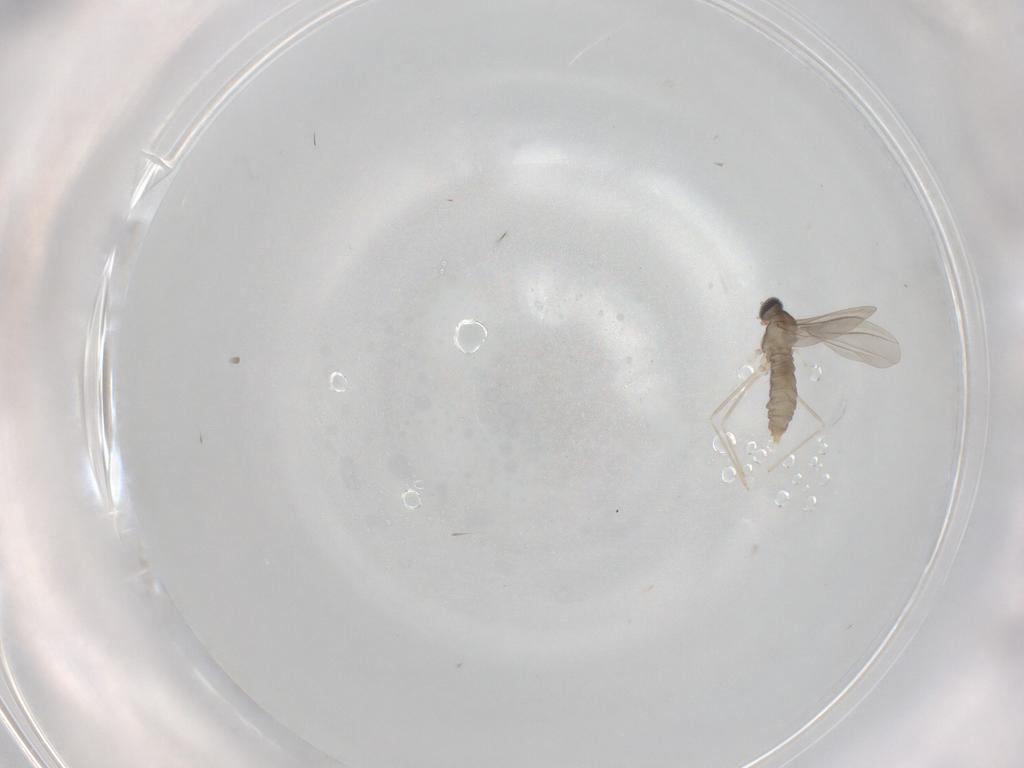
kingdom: Animalia
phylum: Arthropoda
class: Insecta
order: Diptera
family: Cecidomyiidae
